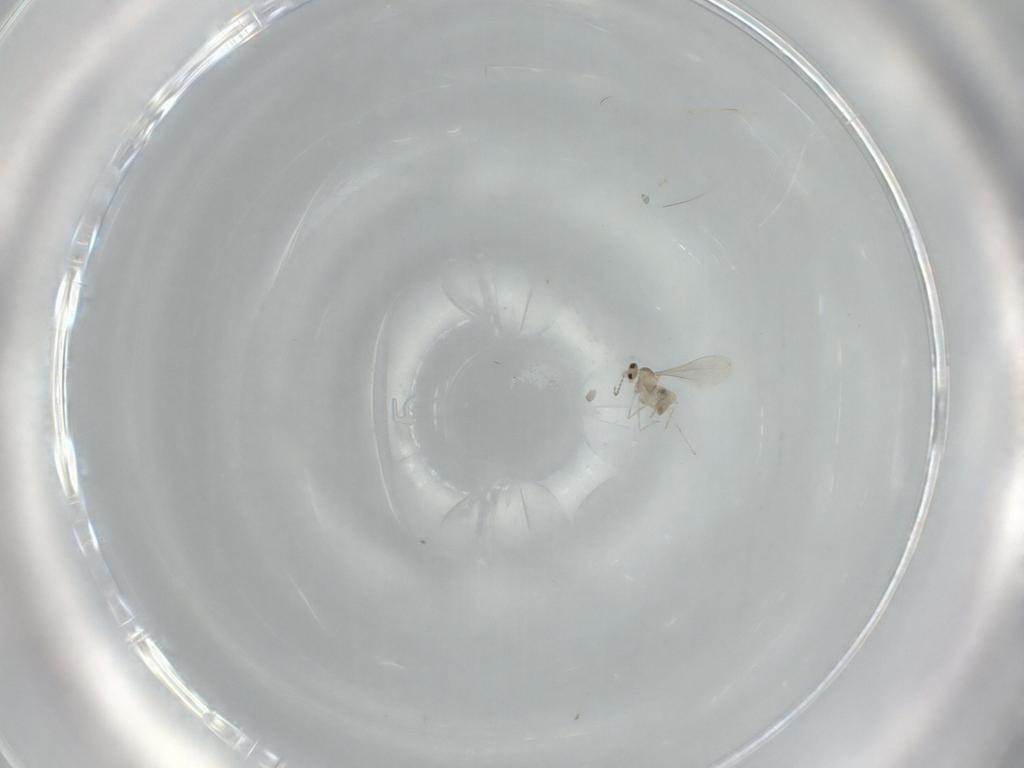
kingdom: Animalia
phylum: Arthropoda
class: Insecta
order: Diptera
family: Cecidomyiidae
